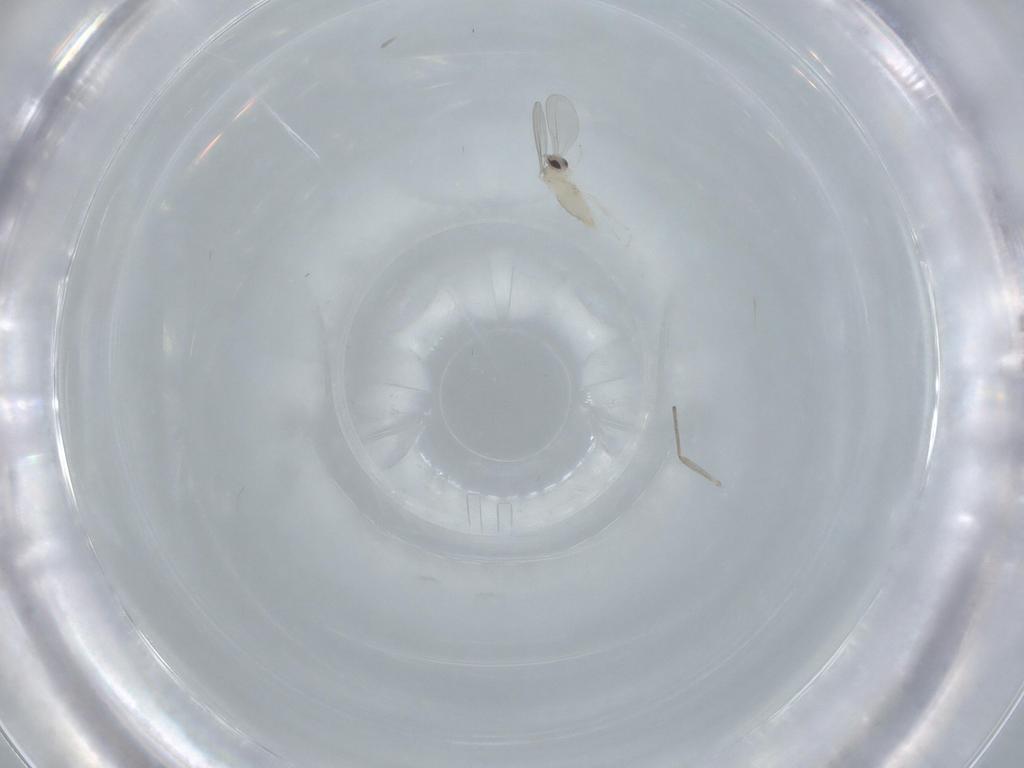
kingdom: Animalia
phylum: Arthropoda
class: Insecta
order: Diptera
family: Cecidomyiidae
